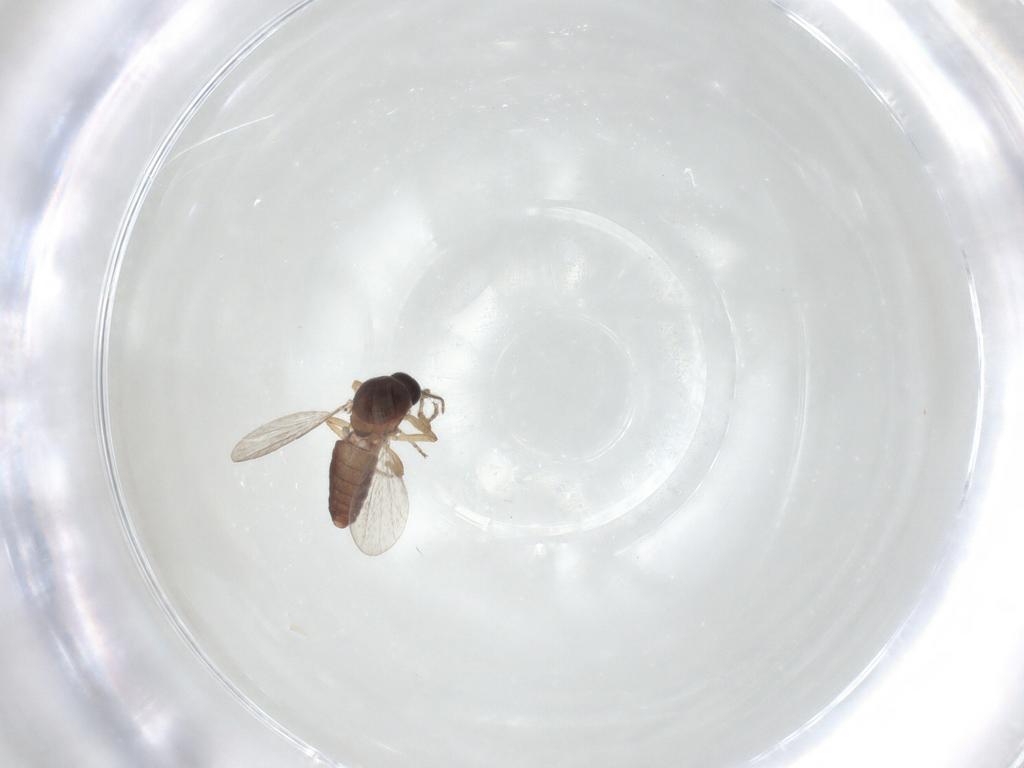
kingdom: Animalia
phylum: Arthropoda
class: Insecta
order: Diptera
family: Ceratopogonidae
